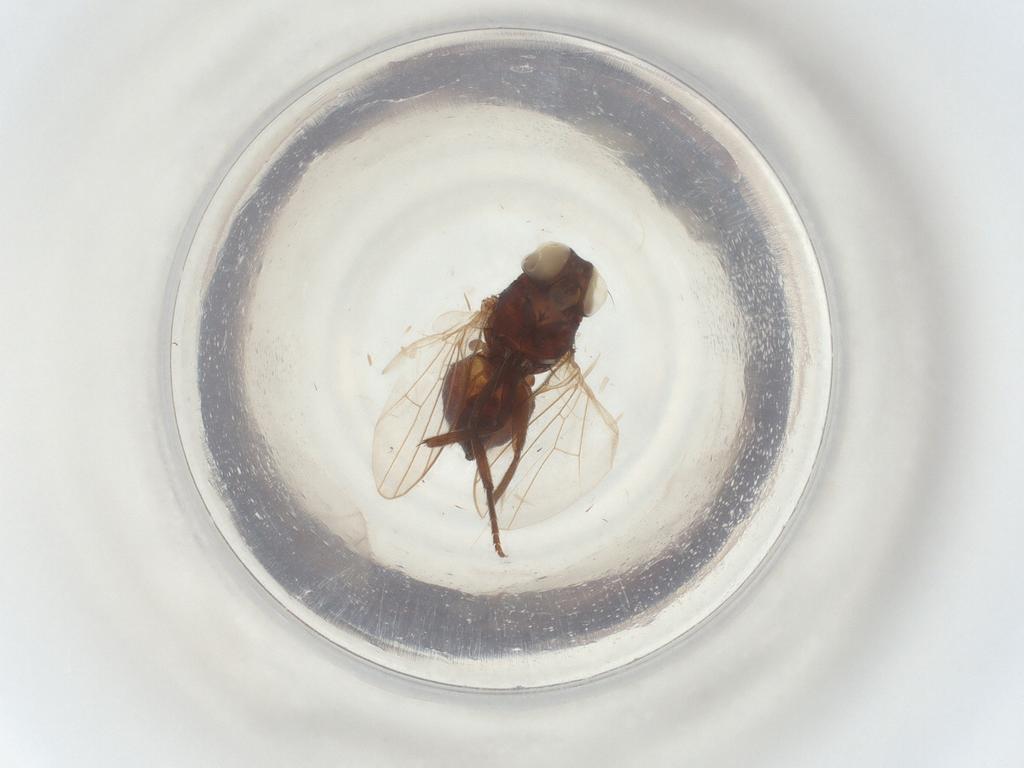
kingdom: Animalia
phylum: Arthropoda
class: Insecta
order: Diptera
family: Agromyzidae
